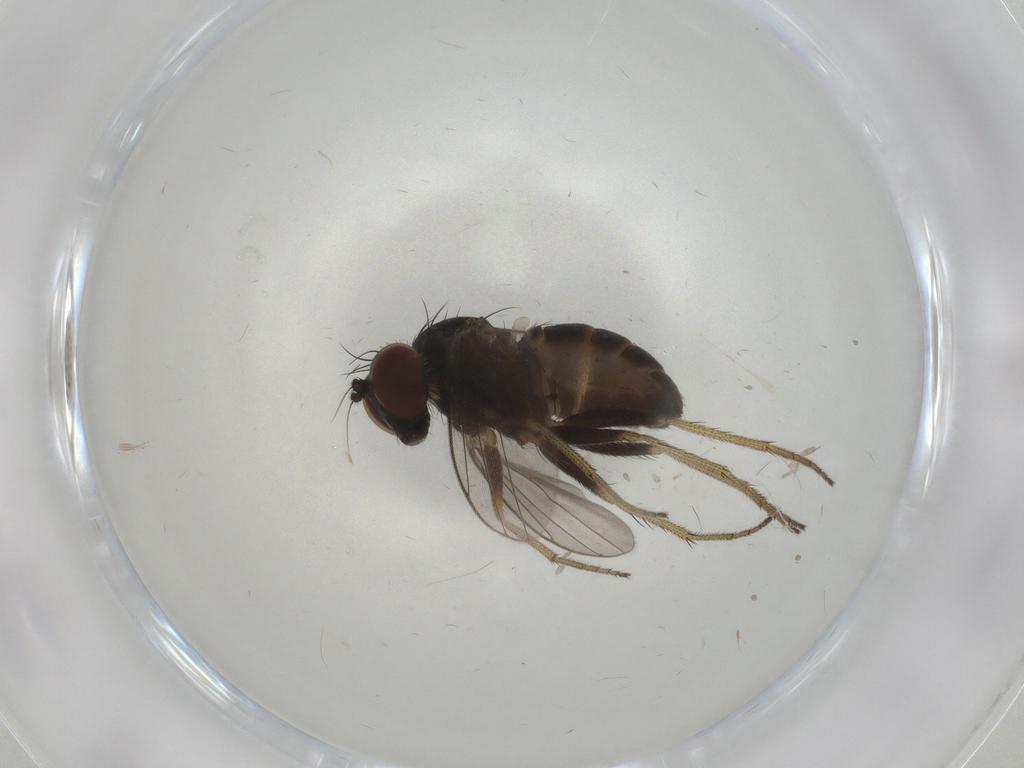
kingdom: Animalia
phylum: Arthropoda
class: Insecta
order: Diptera
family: Dolichopodidae
